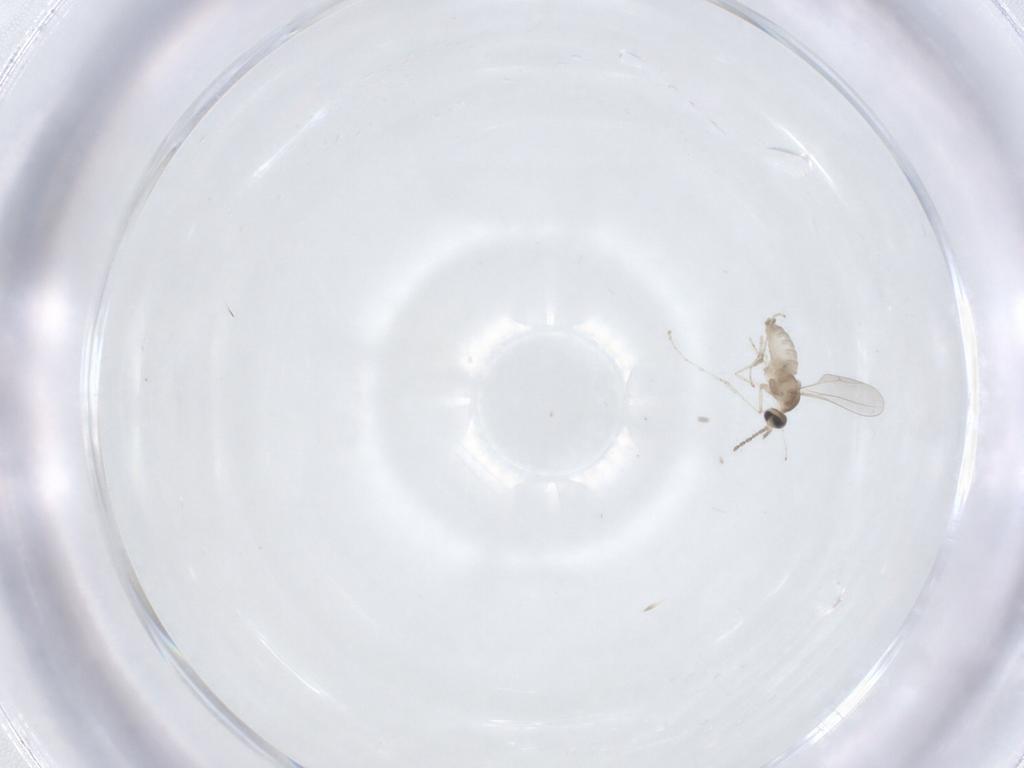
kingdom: Animalia
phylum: Arthropoda
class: Insecta
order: Diptera
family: Cecidomyiidae
